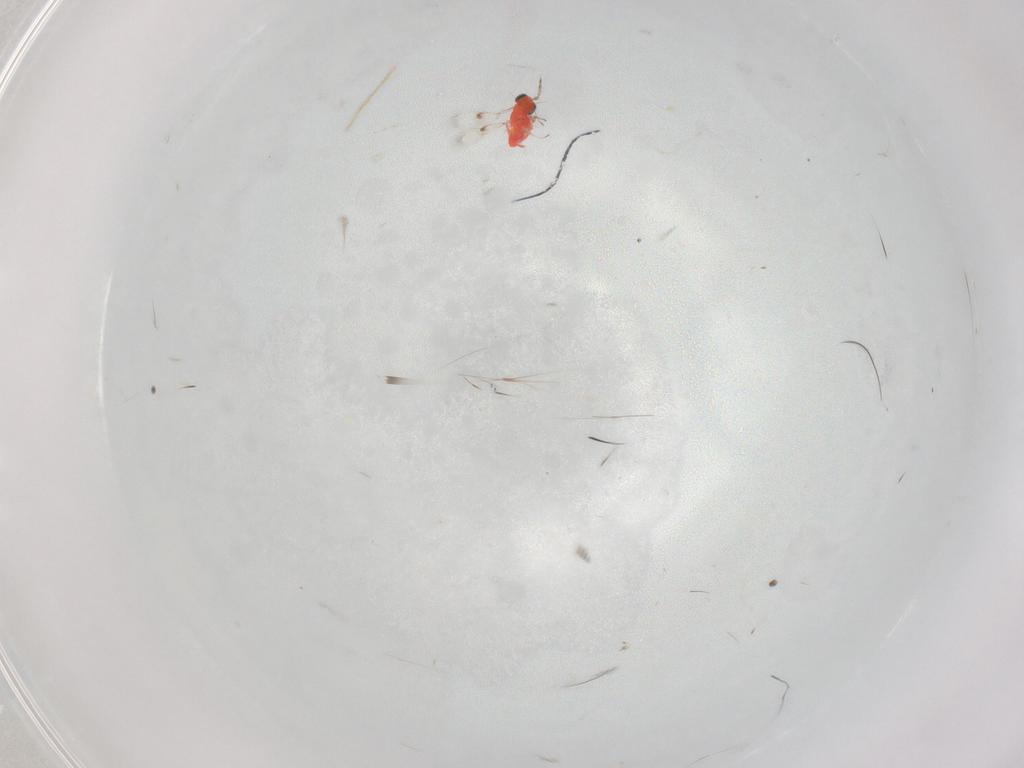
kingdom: Animalia
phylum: Arthropoda
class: Insecta
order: Hymenoptera
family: Trichogrammatidae
